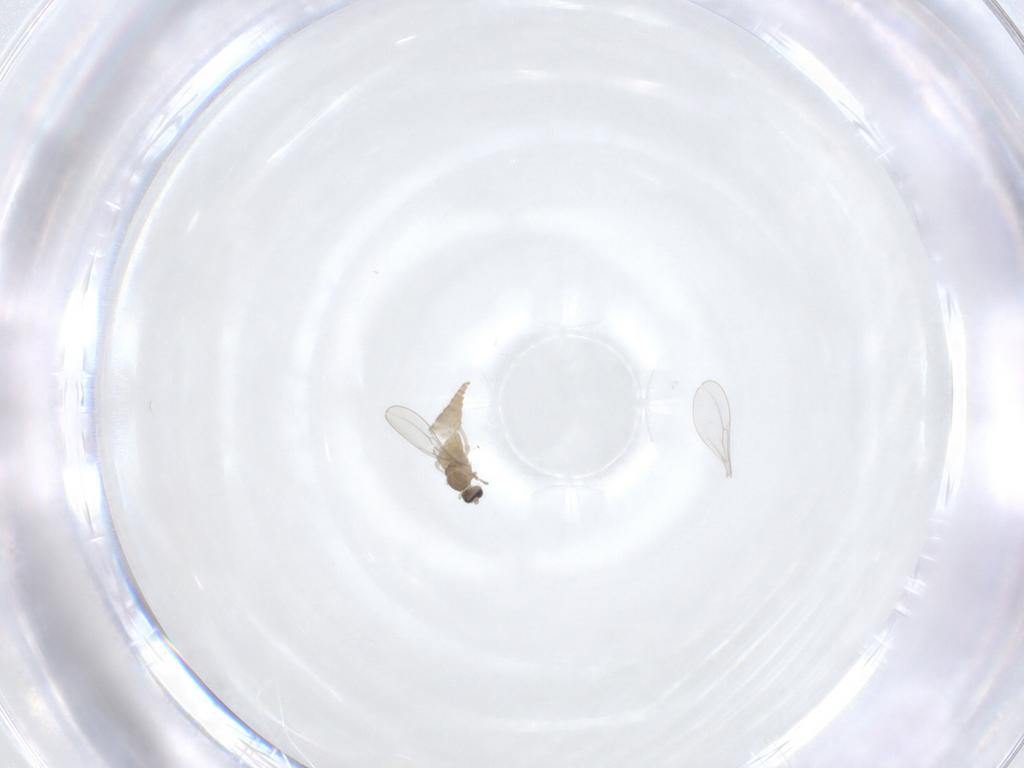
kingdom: Animalia
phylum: Arthropoda
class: Insecta
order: Diptera
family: Cecidomyiidae
